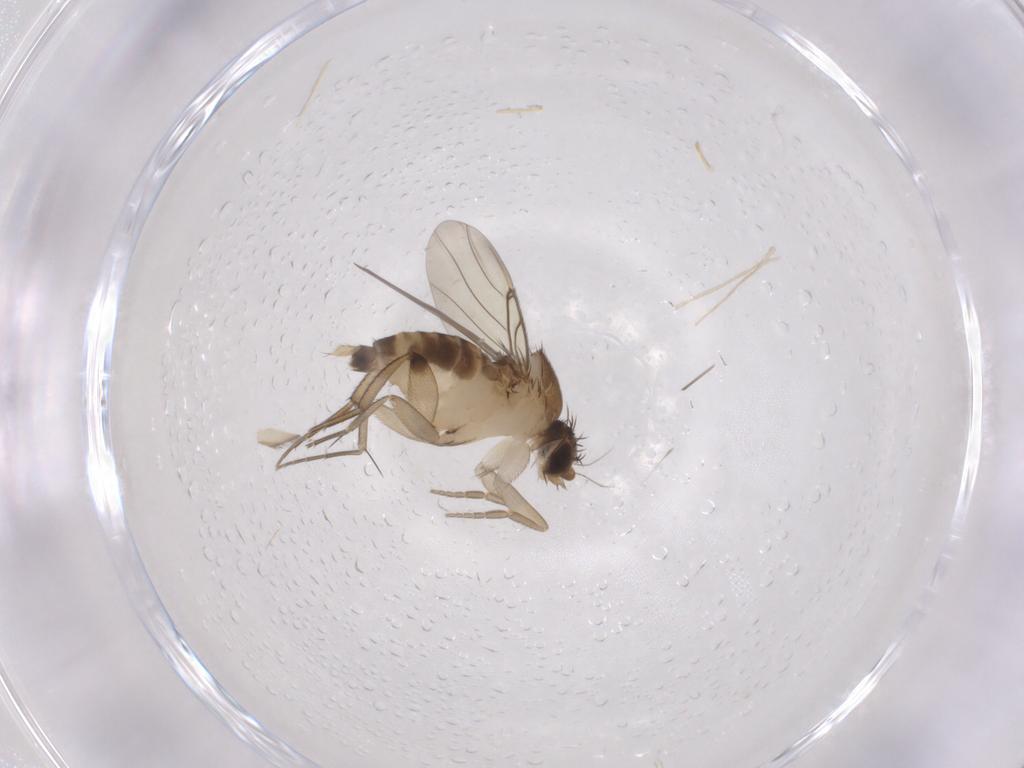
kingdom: Animalia
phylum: Arthropoda
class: Insecta
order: Diptera
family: Phoridae
